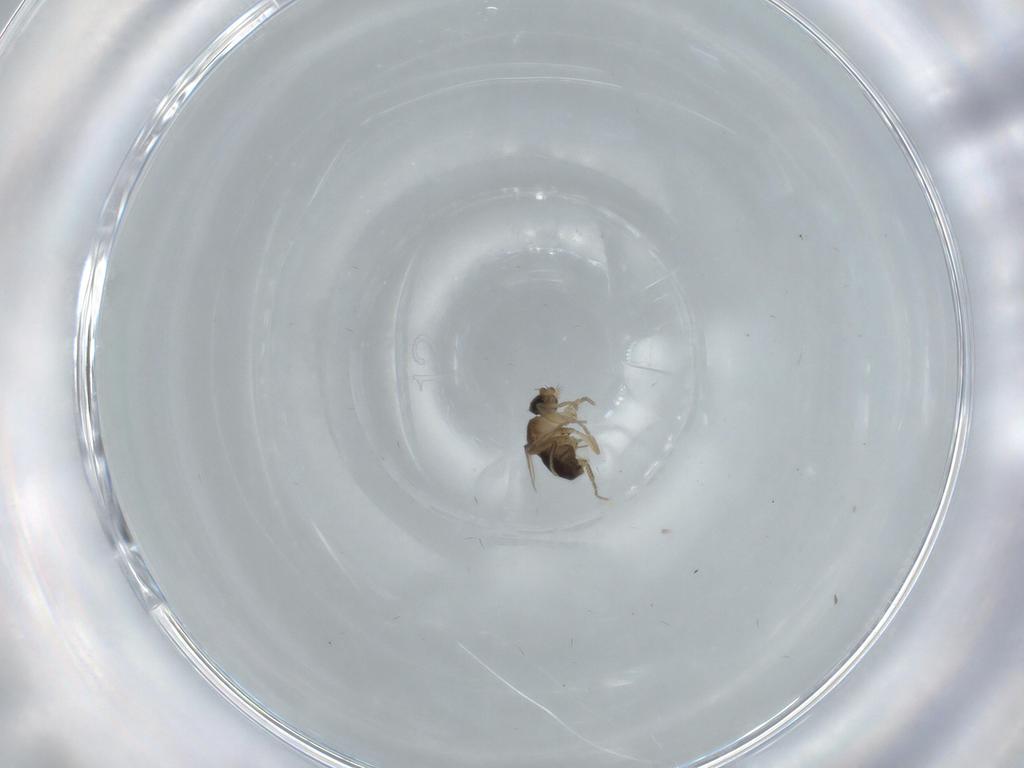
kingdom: Animalia
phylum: Arthropoda
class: Insecta
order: Diptera
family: Phoridae
